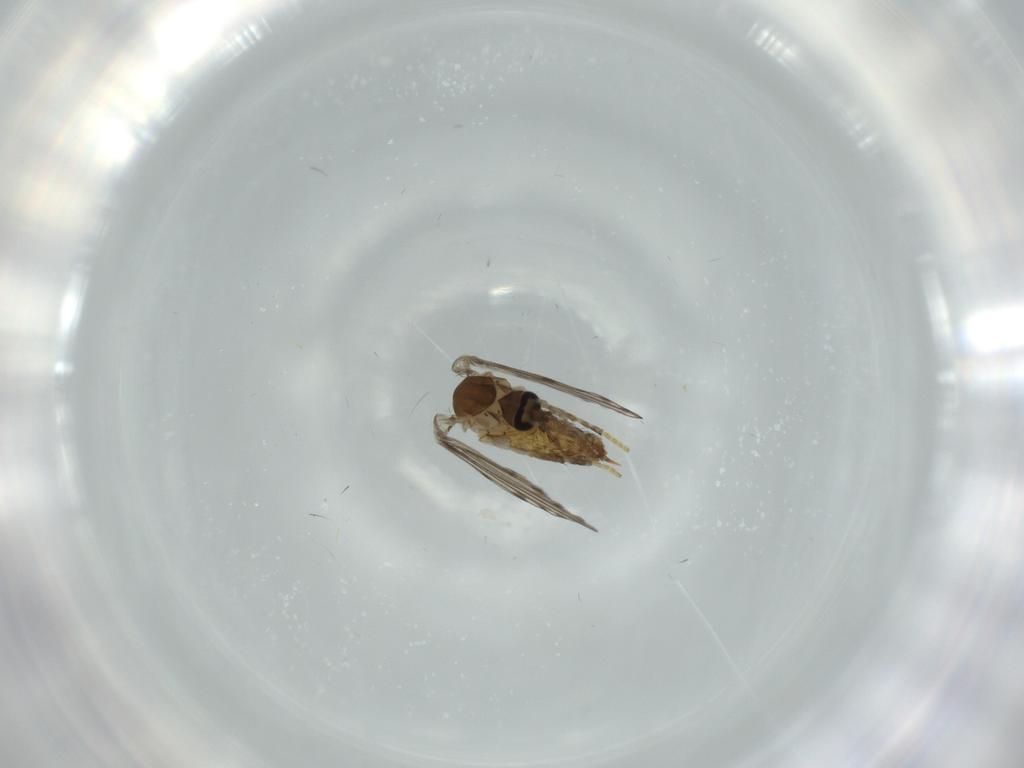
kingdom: Animalia
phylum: Arthropoda
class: Insecta
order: Diptera
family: Cecidomyiidae
